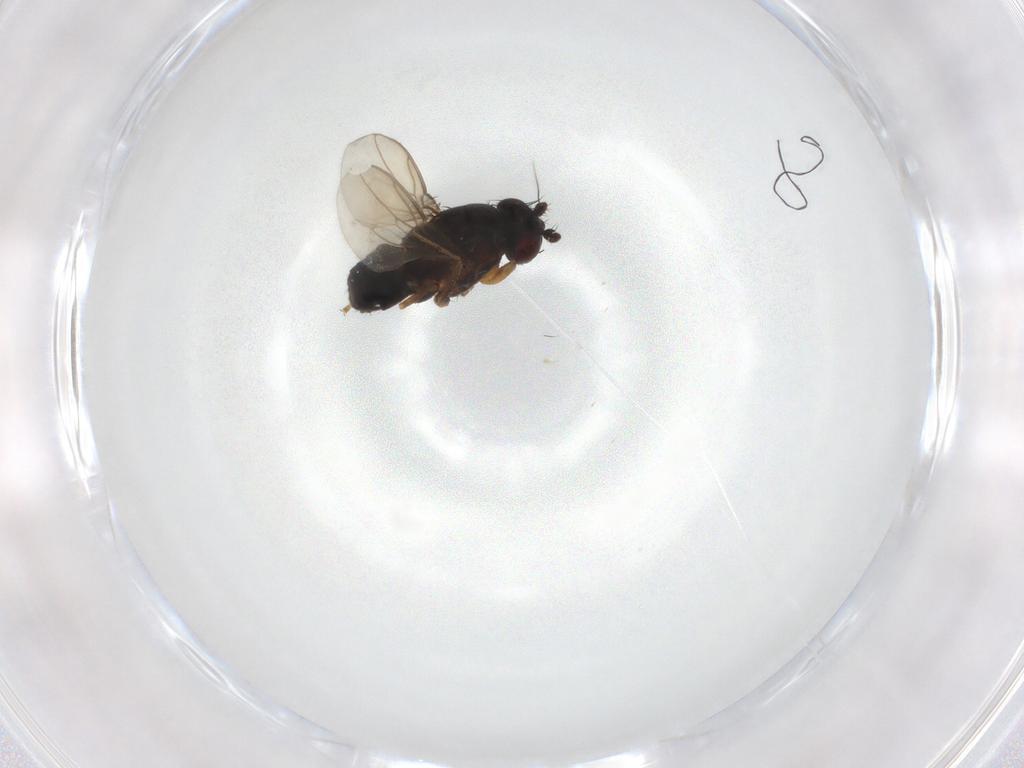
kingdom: Animalia
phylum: Arthropoda
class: Insecta
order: Diptera
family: Sphaeroceridae
